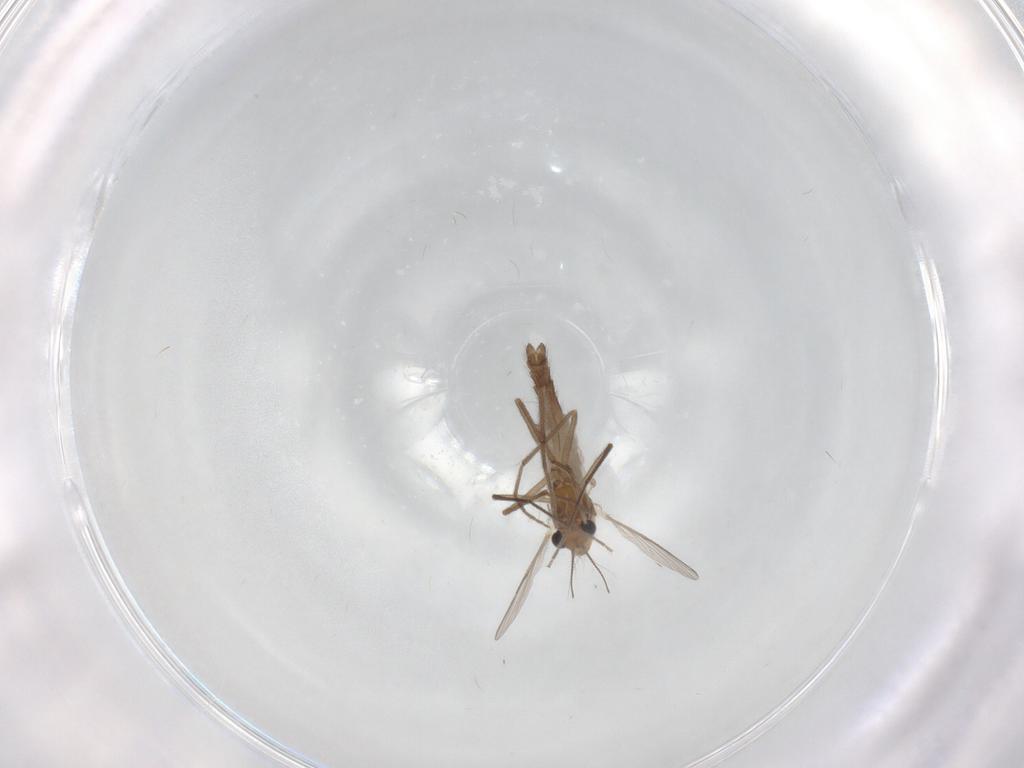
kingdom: Animalia
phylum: Arthropoda
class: Insecta
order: Diptera
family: Chironomidae
